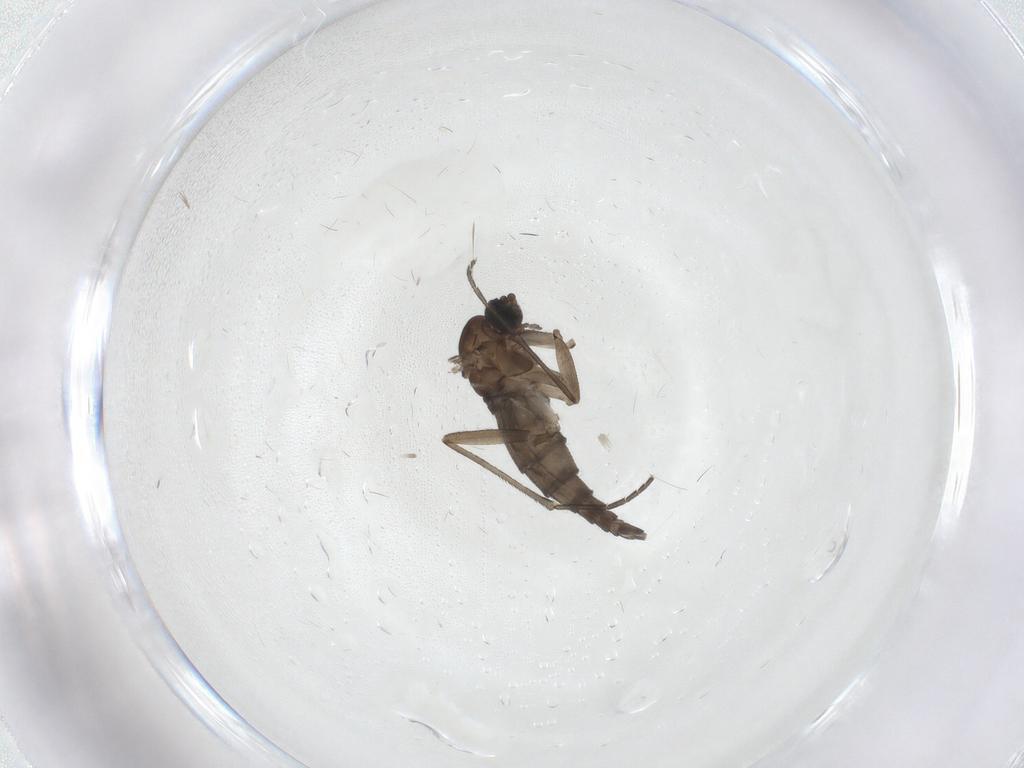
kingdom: Animalia
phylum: Arthropoda
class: Insecta
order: Diptera
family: Sciaridae
